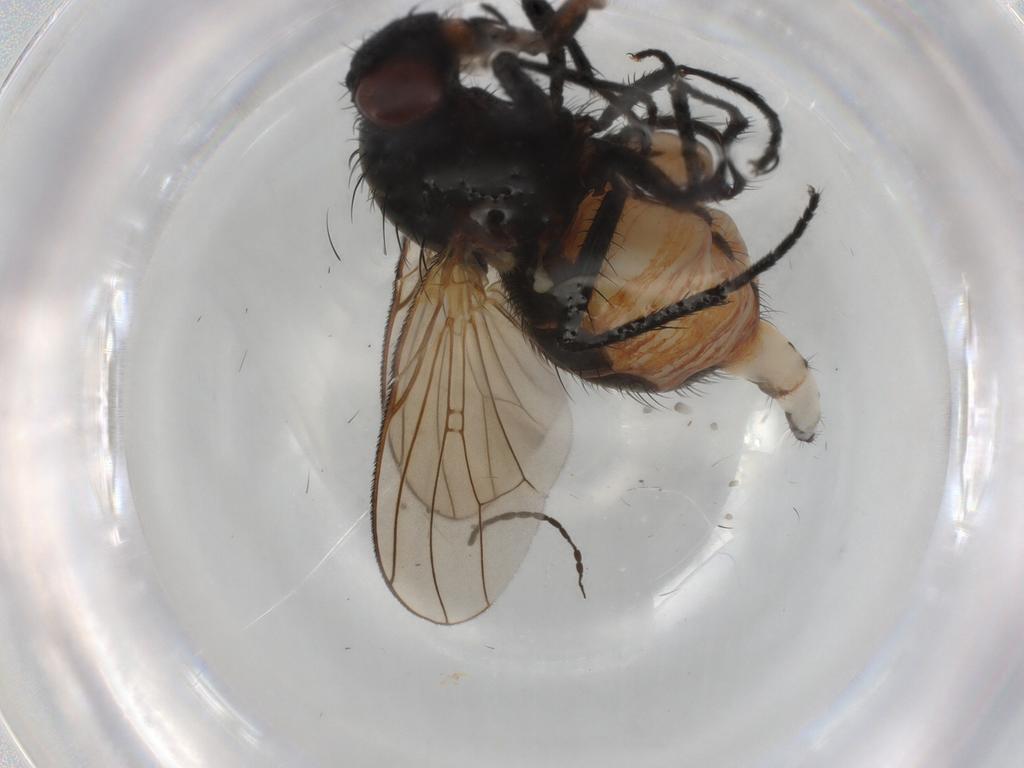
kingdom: Animalia
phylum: Arthropoda
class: Insecta
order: Diptera
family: Anthomyiidae
